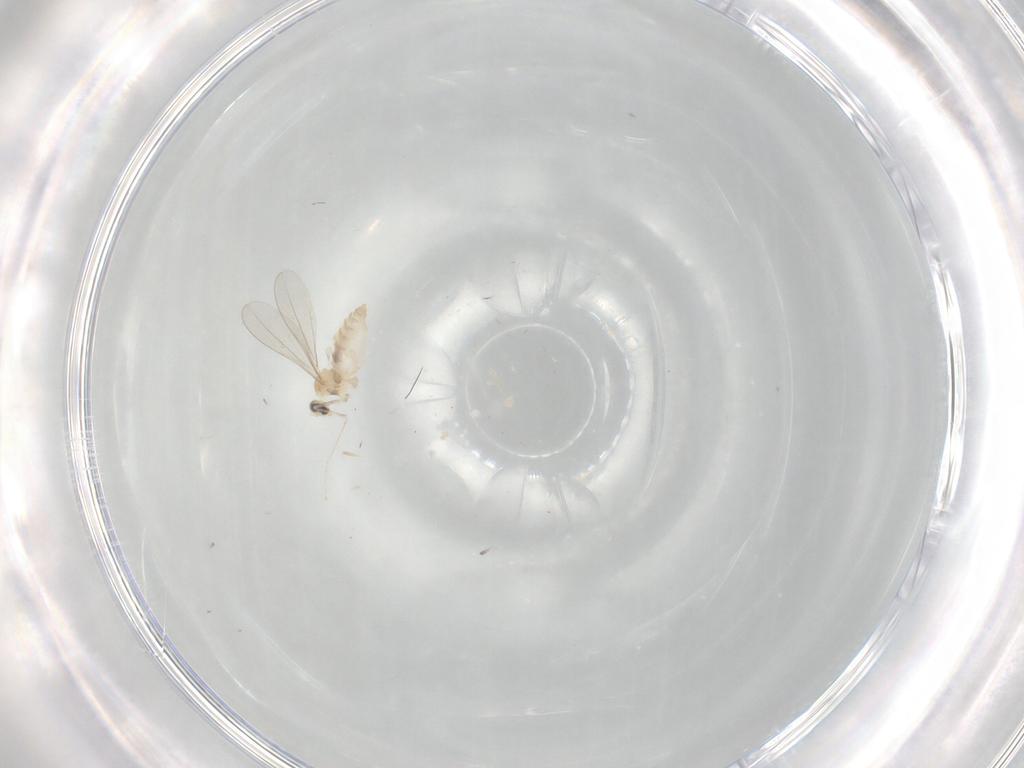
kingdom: Animalia
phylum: Arthropoda
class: Insecta
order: Diptera
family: Cecidomyiidae
